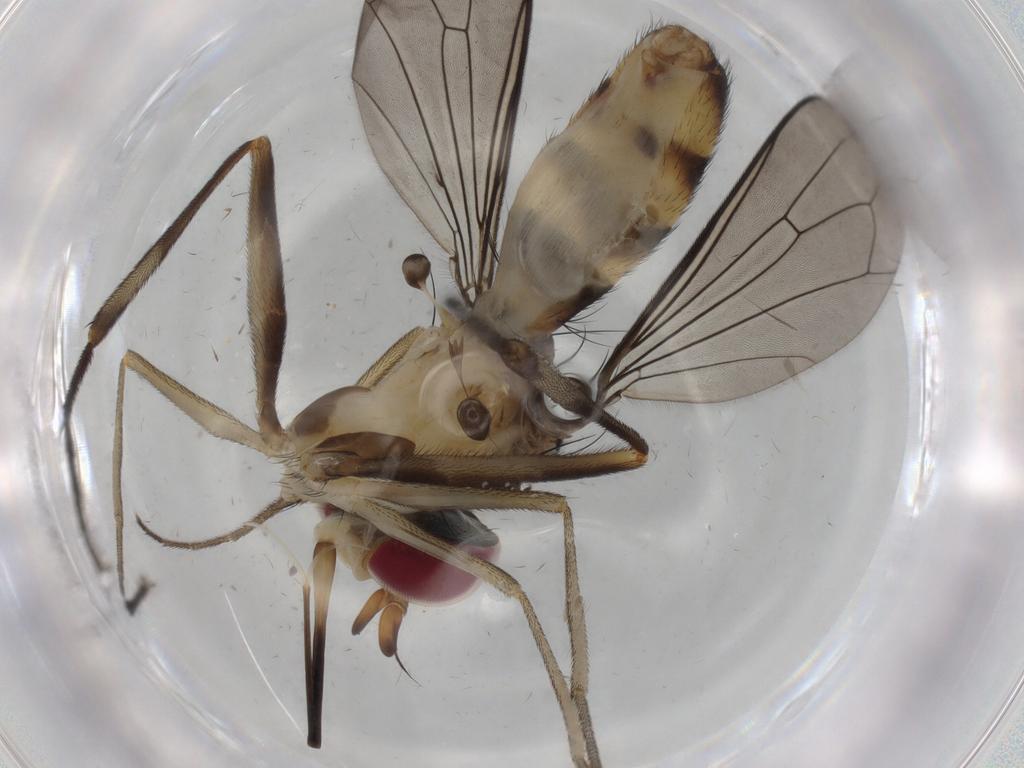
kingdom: Animalia
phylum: Arthropoda
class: Insecta
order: Diptera
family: Conopidae
